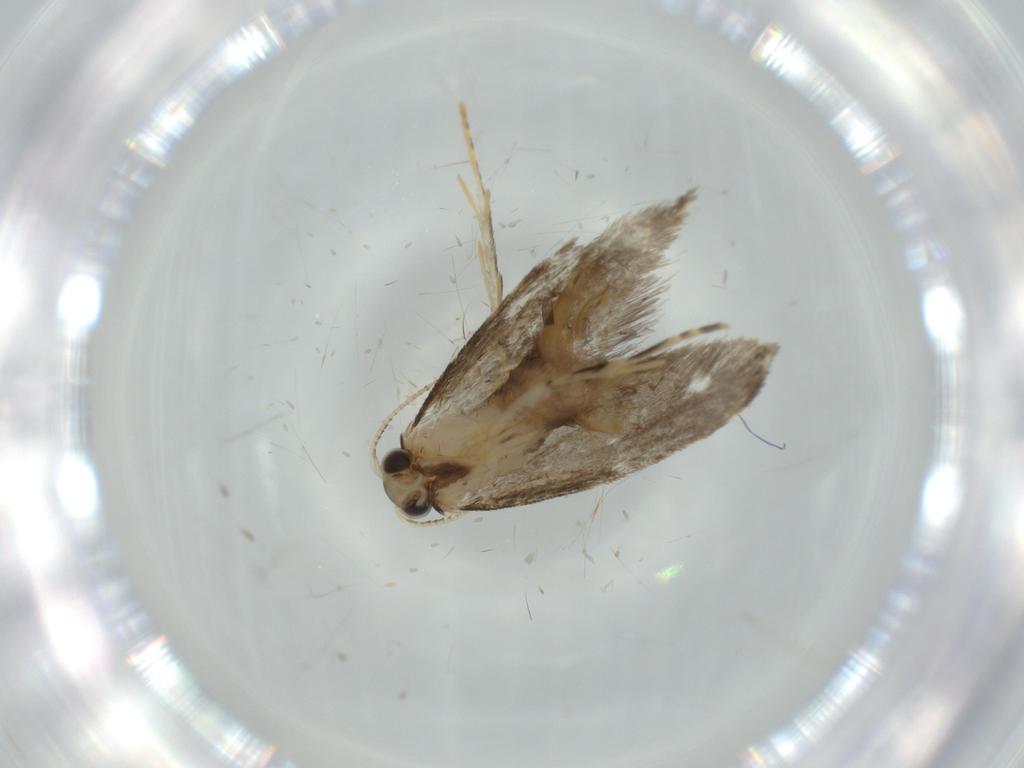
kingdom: Animalia
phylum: Arthropoda
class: Insecta
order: Lepidoptera
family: Tineidae
